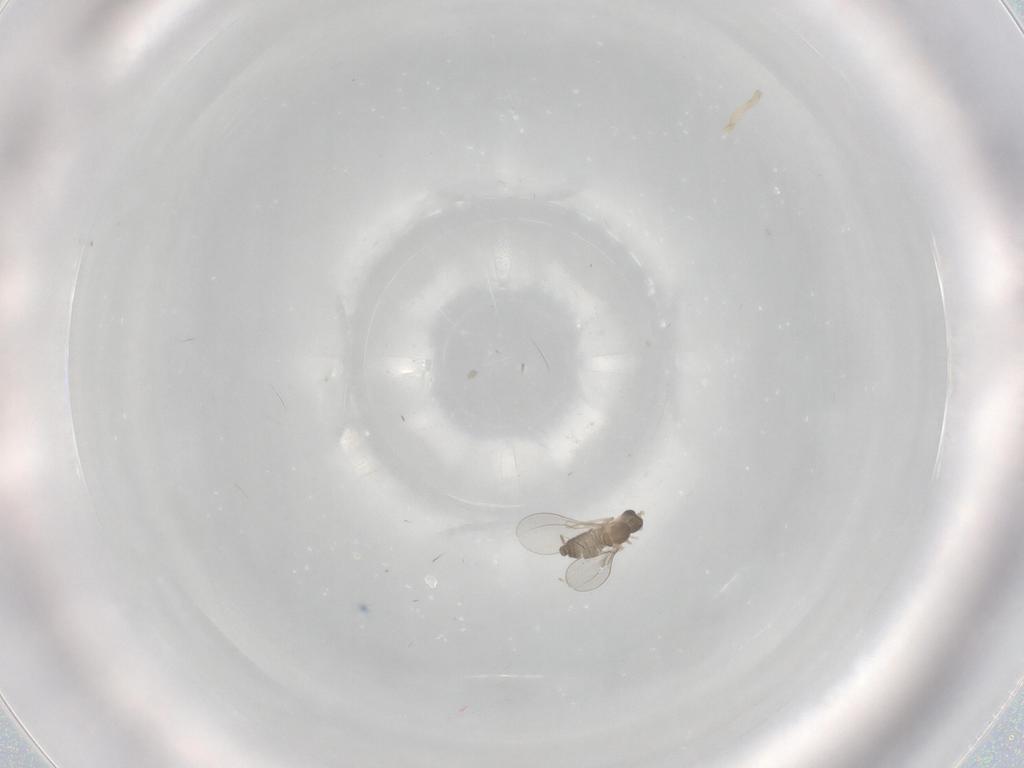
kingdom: Animalia
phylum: Arthropoda
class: Insecta
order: Diptera
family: Cecidomyiidae
